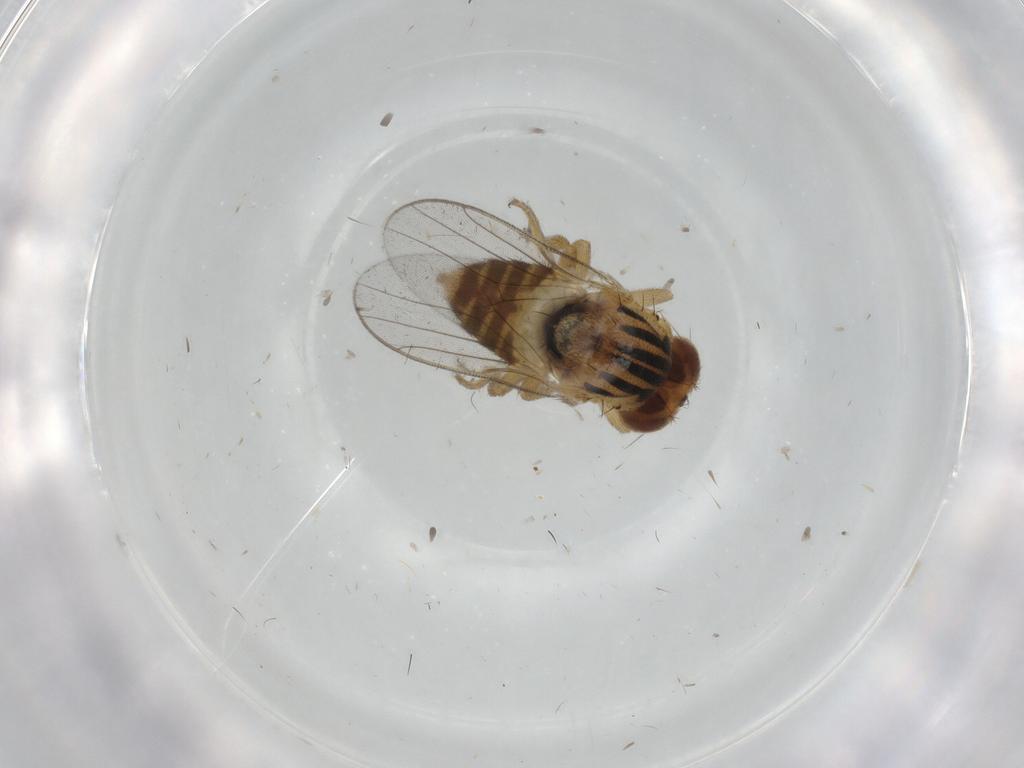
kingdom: Animalia
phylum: Arthropoda
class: Insecta
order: Diptera
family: Chloropidae
